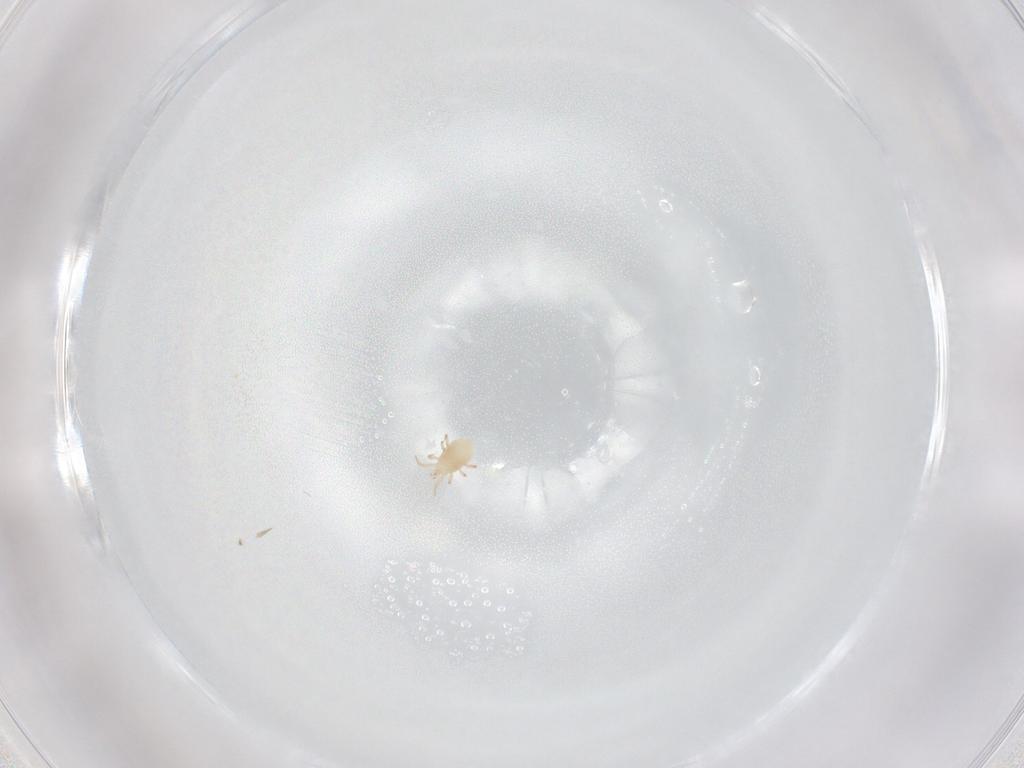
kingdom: Animalia
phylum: Arthropoda
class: Arachnida
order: Mesostigmata
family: Phytoseiidae
